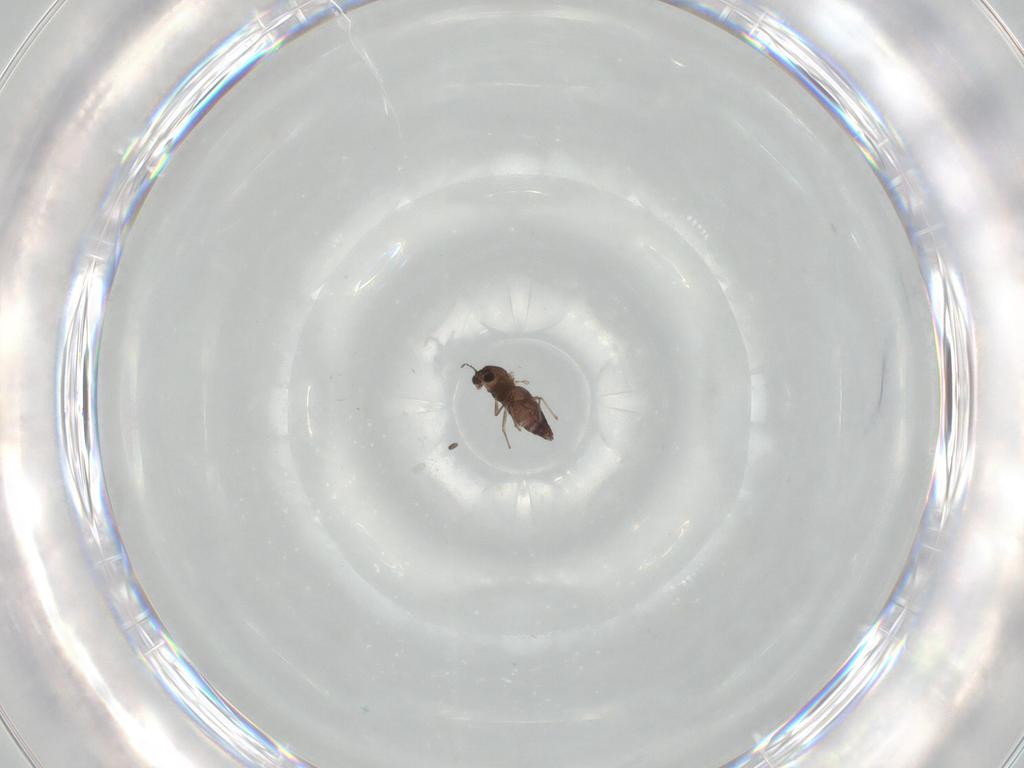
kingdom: Animalia
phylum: Arthropoda
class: Insecta
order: Diptera
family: Chironomidae
